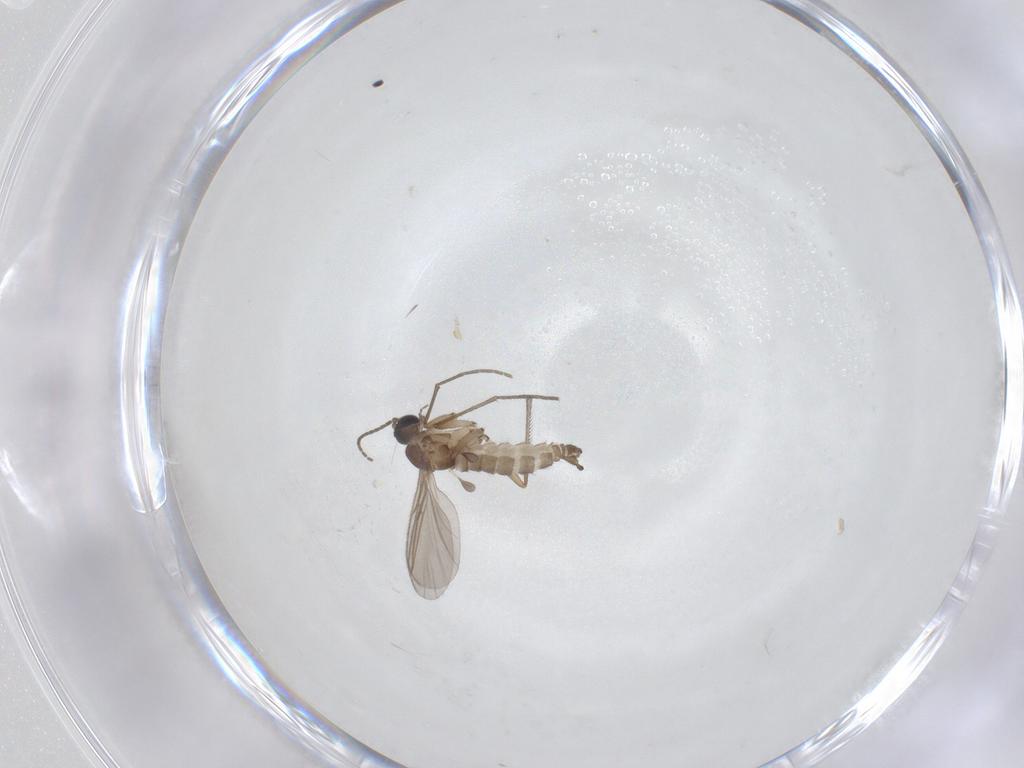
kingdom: Animalia
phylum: Arthropoda
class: Insecta
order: Diptera
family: Sciaridae
